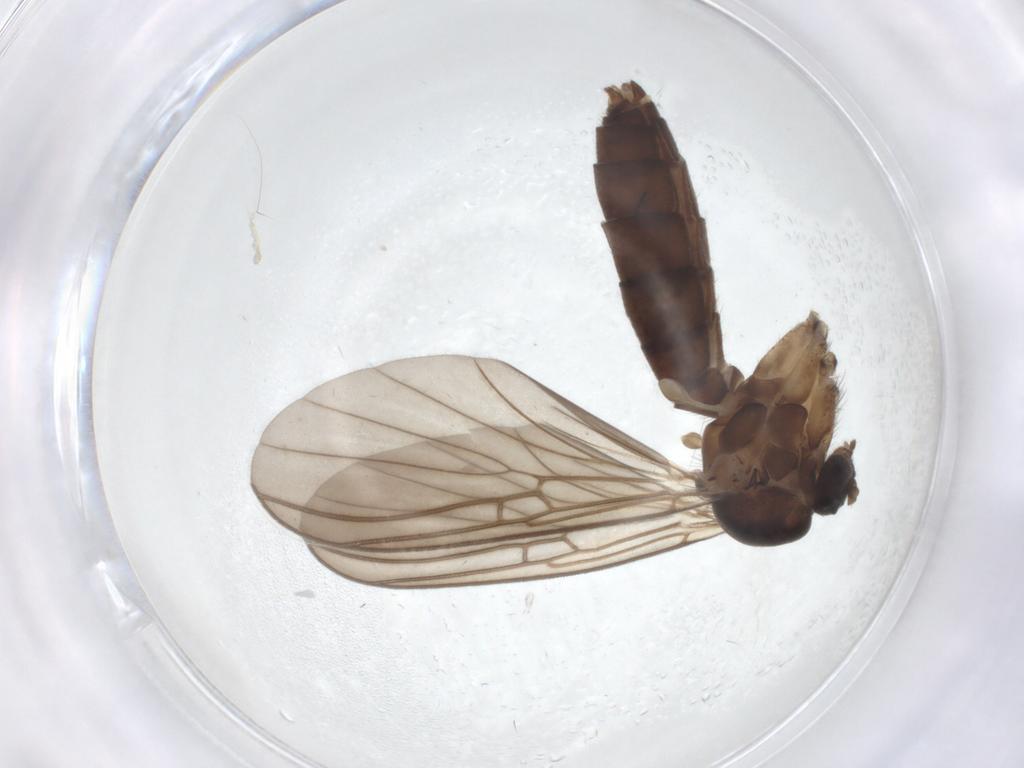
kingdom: Animalia
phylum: Arthropoda
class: Insecta
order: Diptera
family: Mycetophilidae
